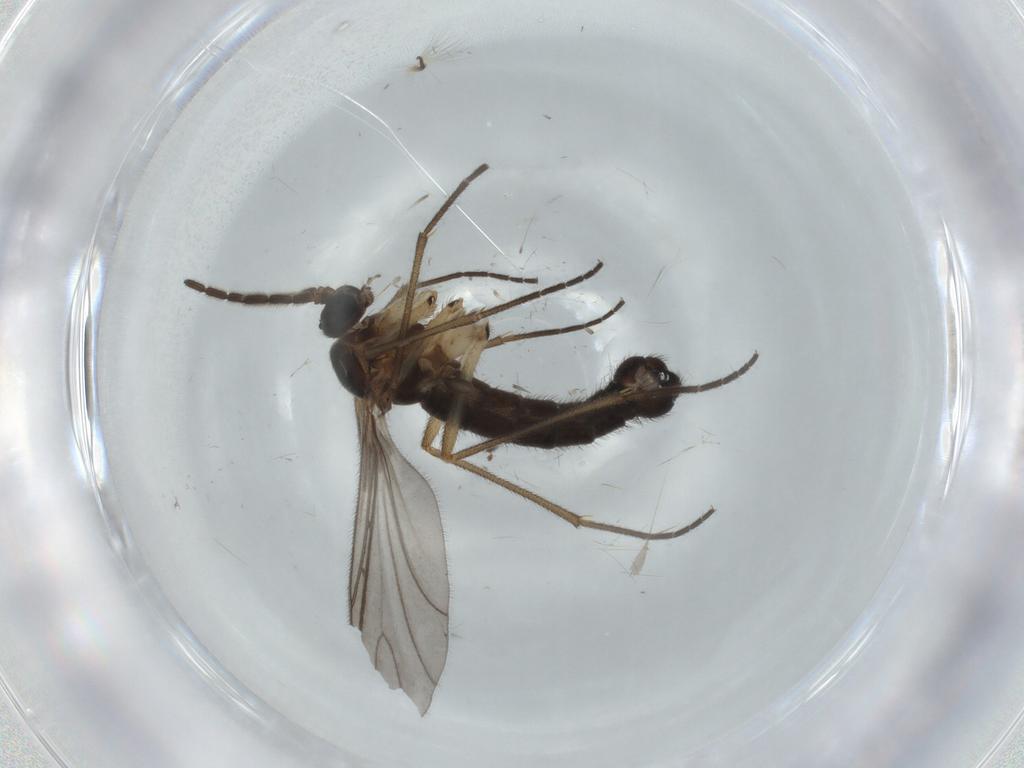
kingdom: Animalia
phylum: Arthropoda
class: Insecta
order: Diptera
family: Sciaridae
